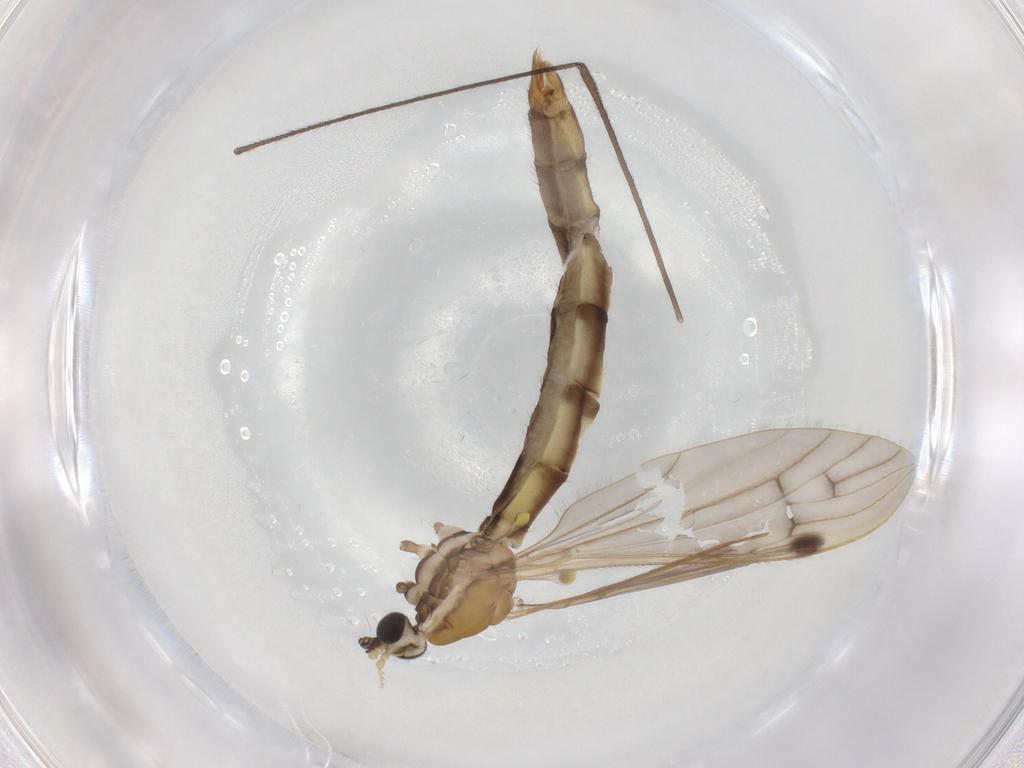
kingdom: Animalia
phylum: Arthropoda
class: Insecta
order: Diptera
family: Limoniidae
